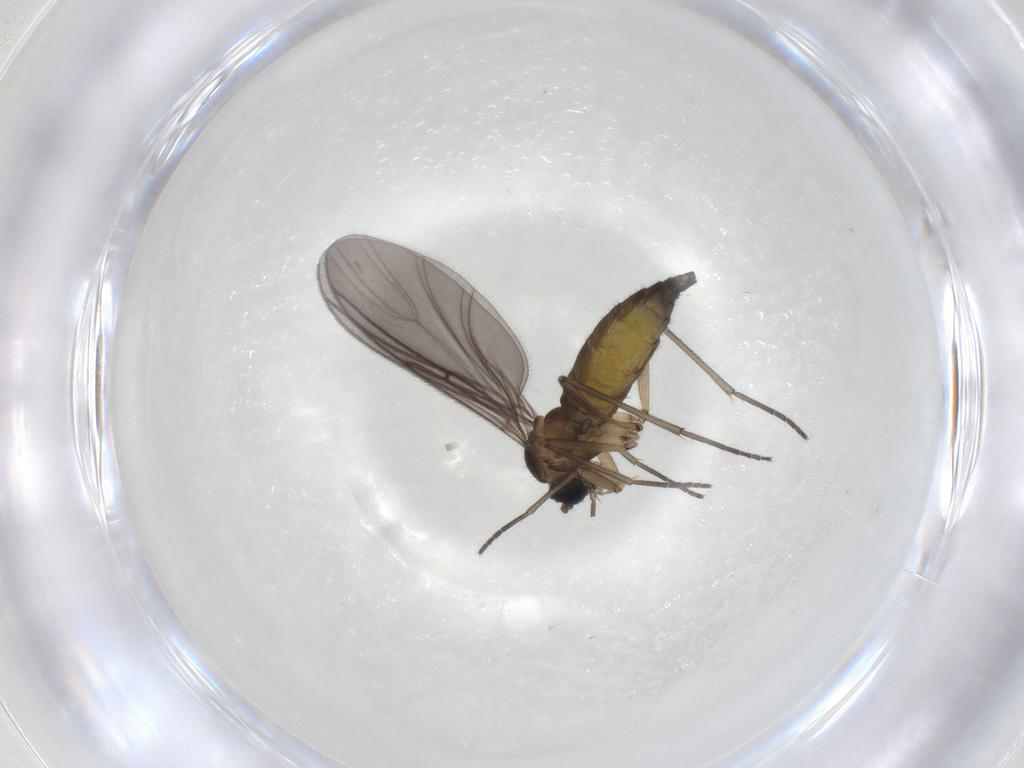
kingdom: Animalia
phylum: Arthropoda
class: Insecta
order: Diptera
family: Sciaridae
